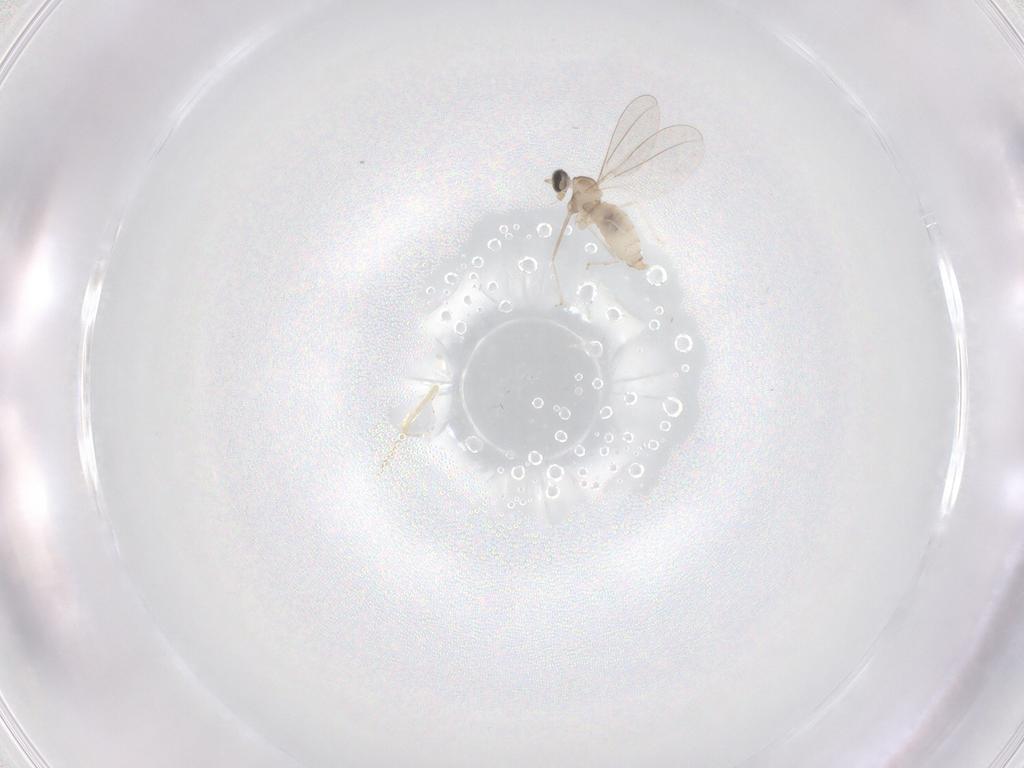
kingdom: Animalia
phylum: Arthropoda
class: Insecta
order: Diptera
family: Cecidomyiidae
